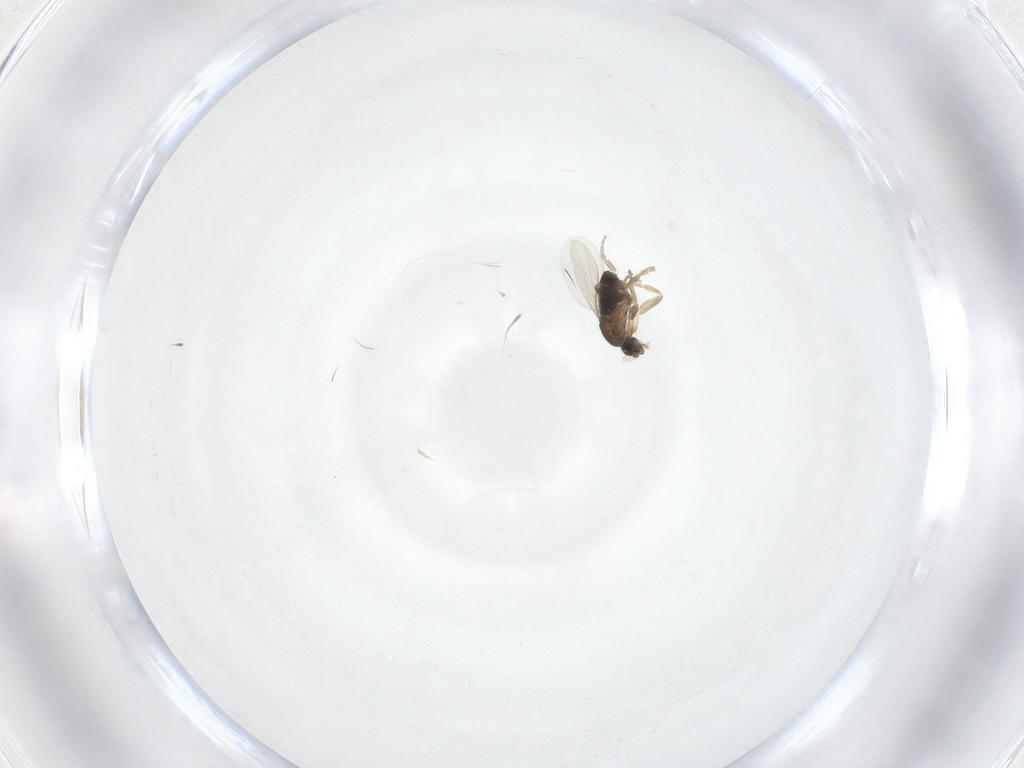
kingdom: Animalia
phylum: Arthropoda
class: Insecta
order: Diptera
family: Phoridae
